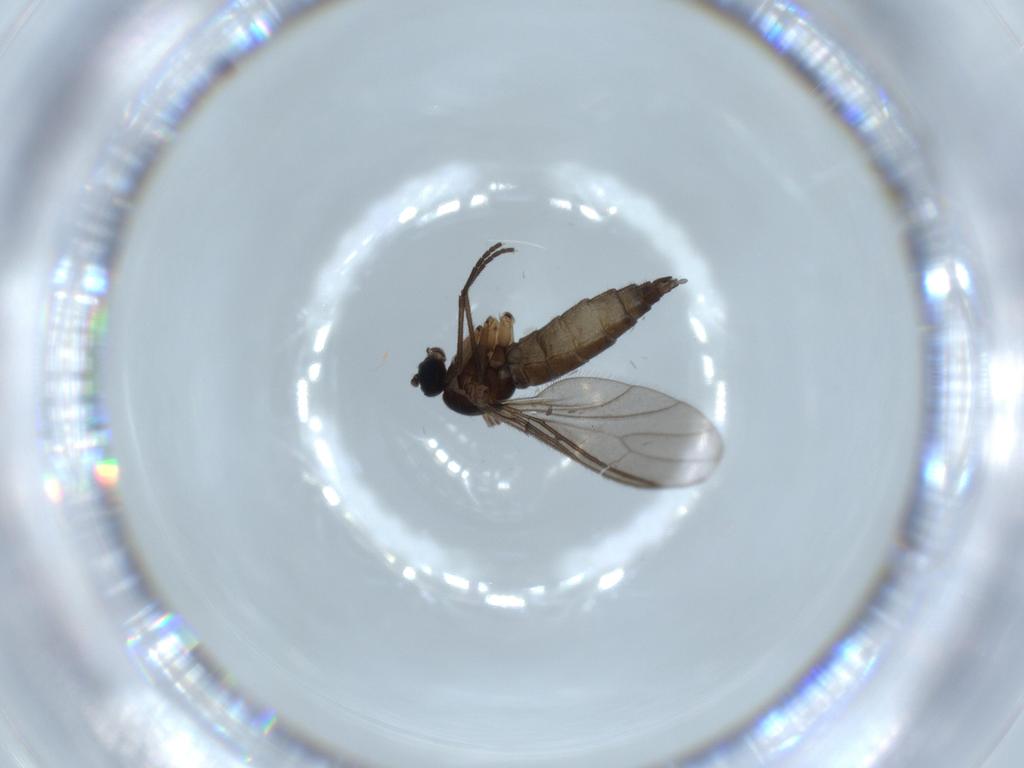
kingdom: Animalia
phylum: Arthropoda
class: Insecta
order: Diptera
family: Sciaridae
